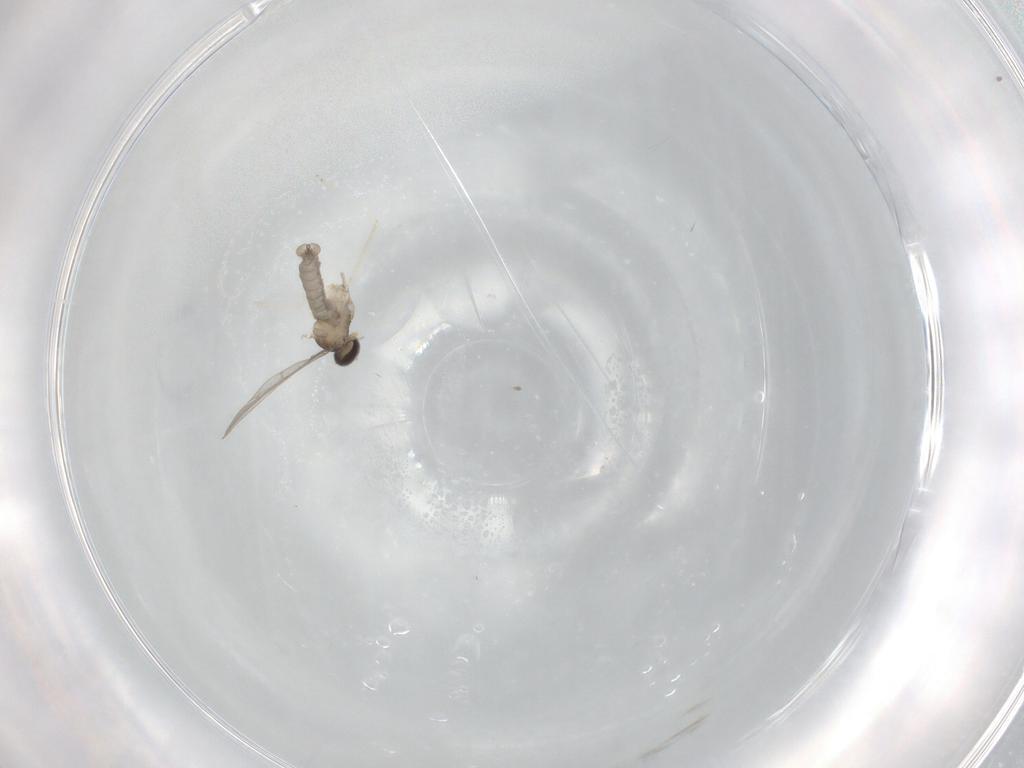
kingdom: Animalia
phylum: Arthropoda
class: Insecta
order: Diptera
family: Cecidomyiidae
